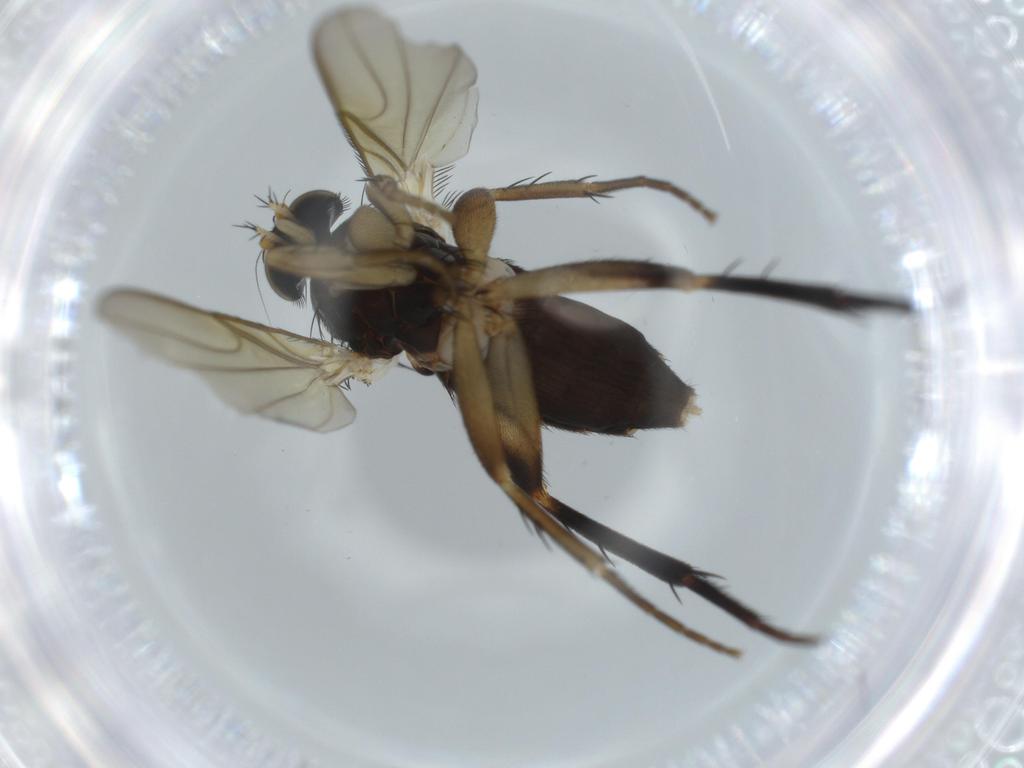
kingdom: Animalia
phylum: Arthropoda
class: Insecta
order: Diptera
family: Phoridae
